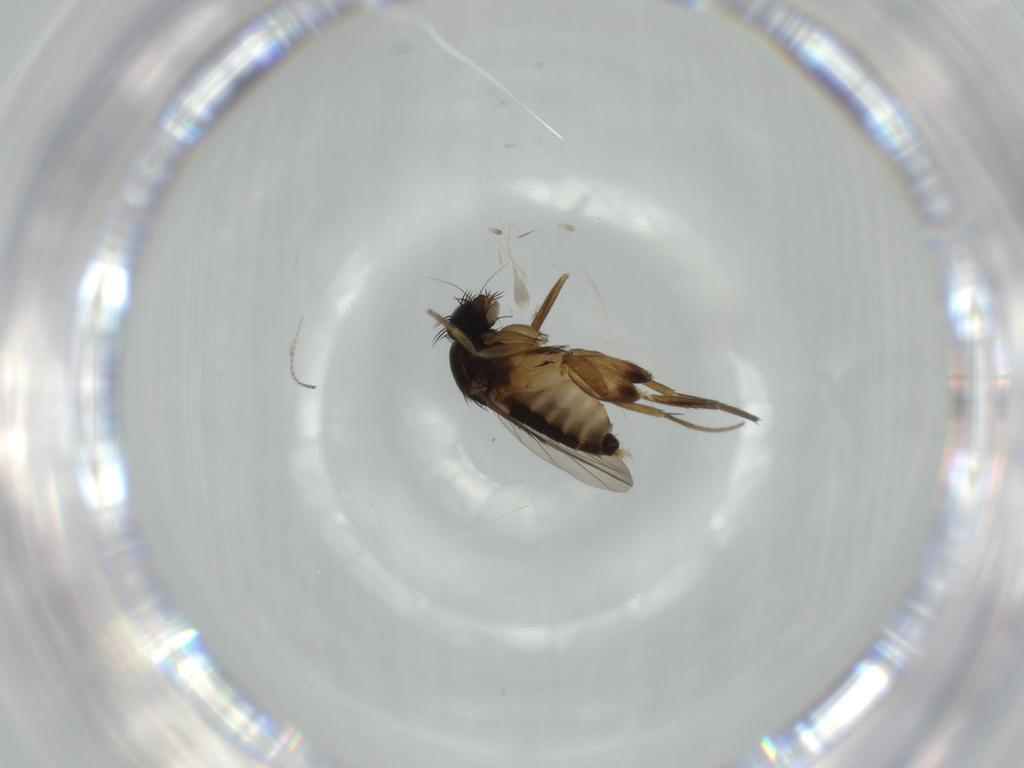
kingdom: Animalia
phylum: Arthropoda
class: Insecta
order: Diptera
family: Phoridae
